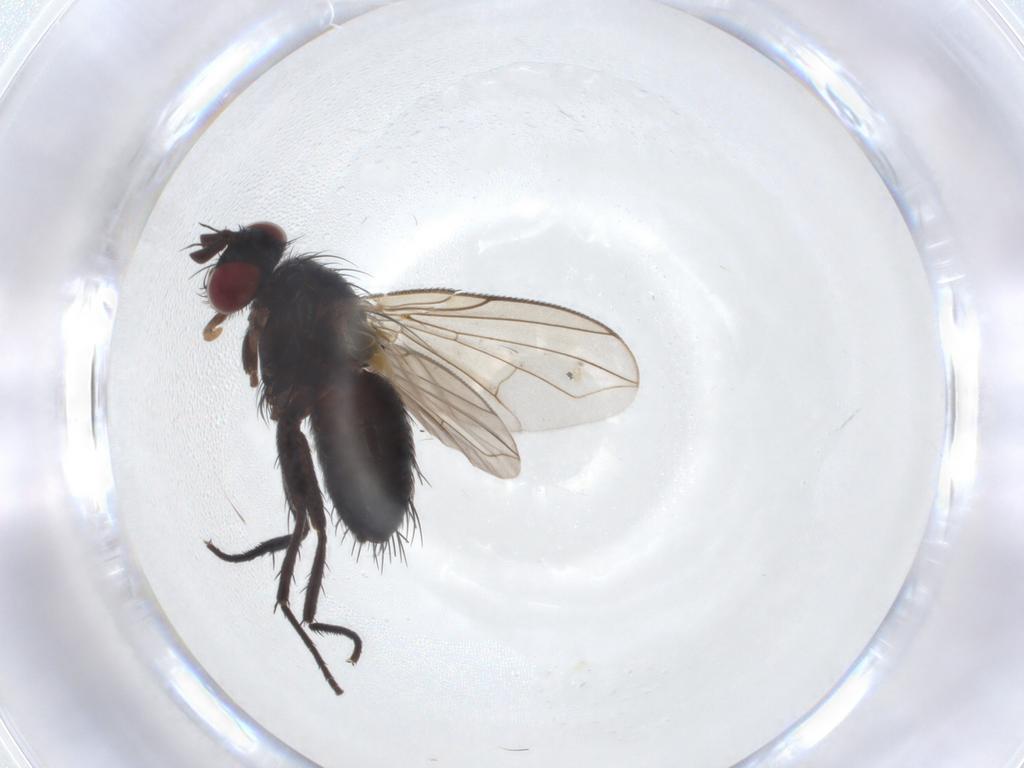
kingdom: Animalia
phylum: Arthropoda
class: Insecta
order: Diptera
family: Tachinidae
